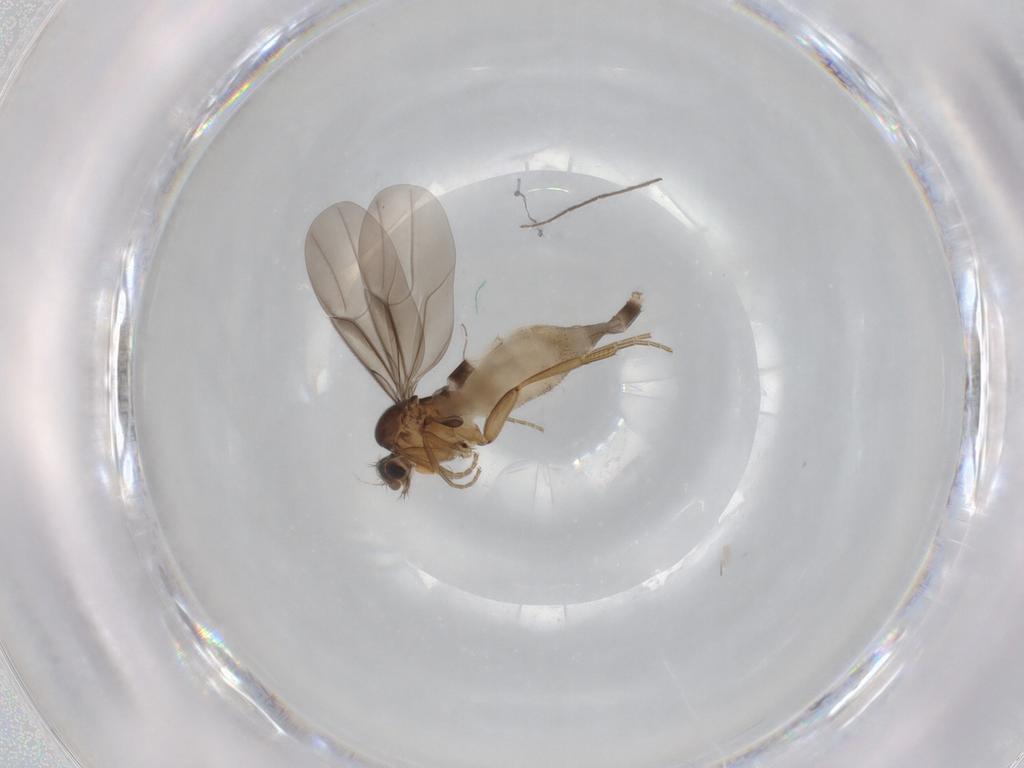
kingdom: Animalia
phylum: Arthropoda
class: Insecta
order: Diptera
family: Phoridae
